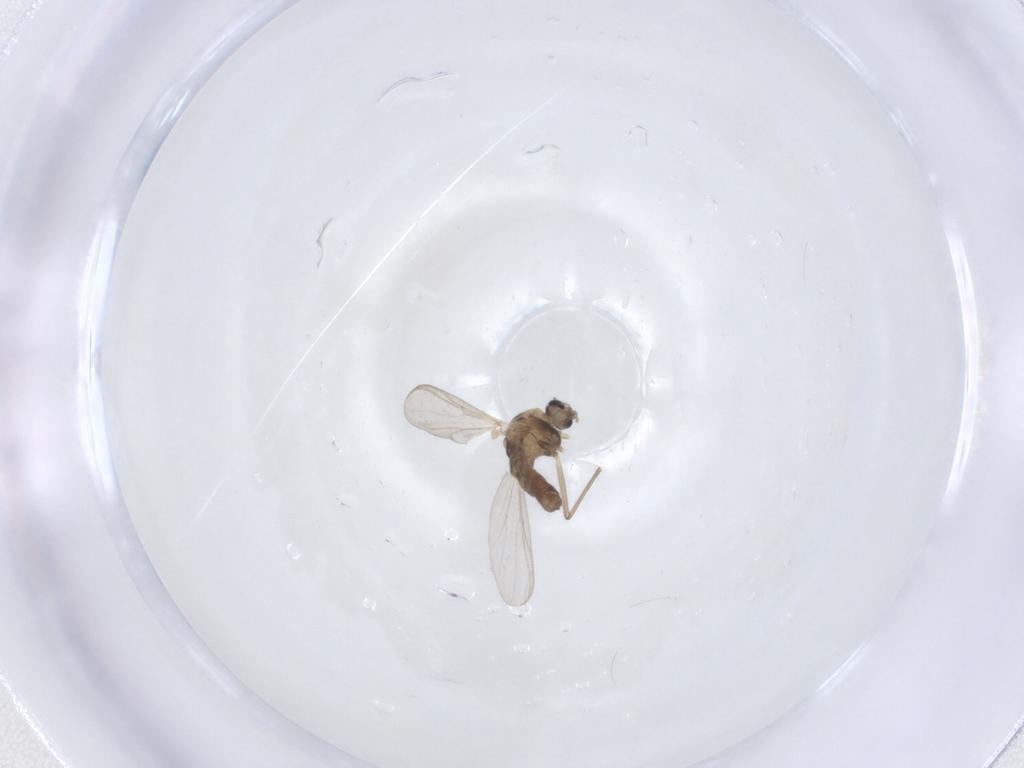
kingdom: Animalia
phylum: Arthropoda
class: Insecta
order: Diptera
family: Chironomidae
